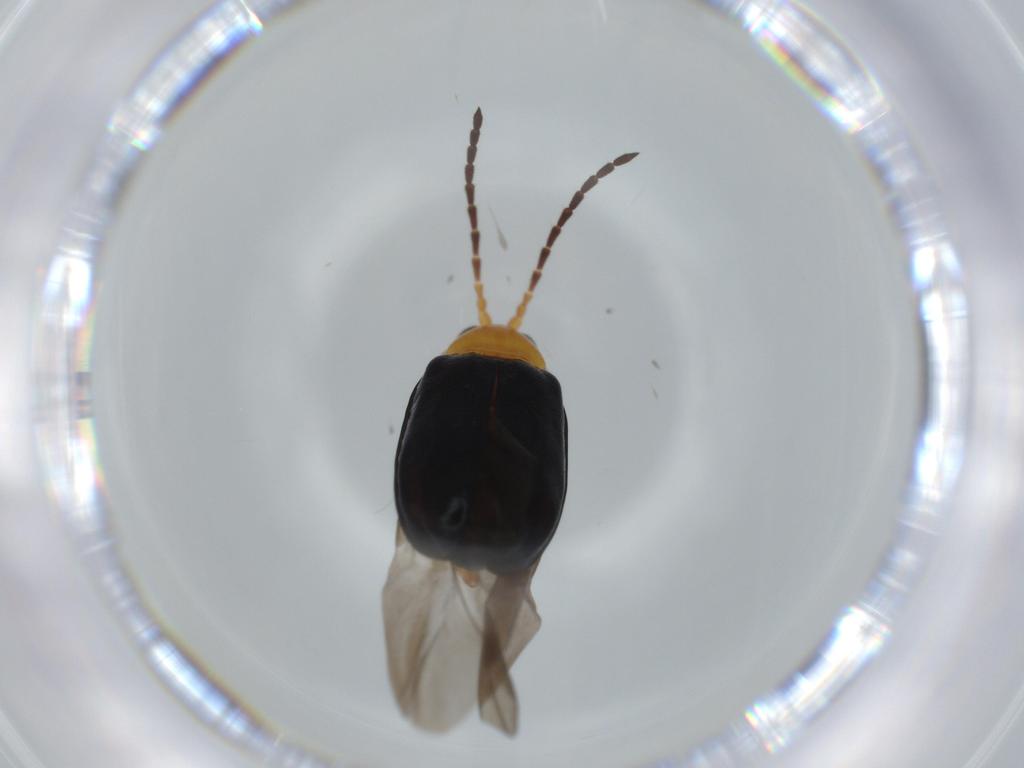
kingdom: Animalia
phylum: Arthropoda
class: Insecta
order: Coleoptera
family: Chrysomelidae
